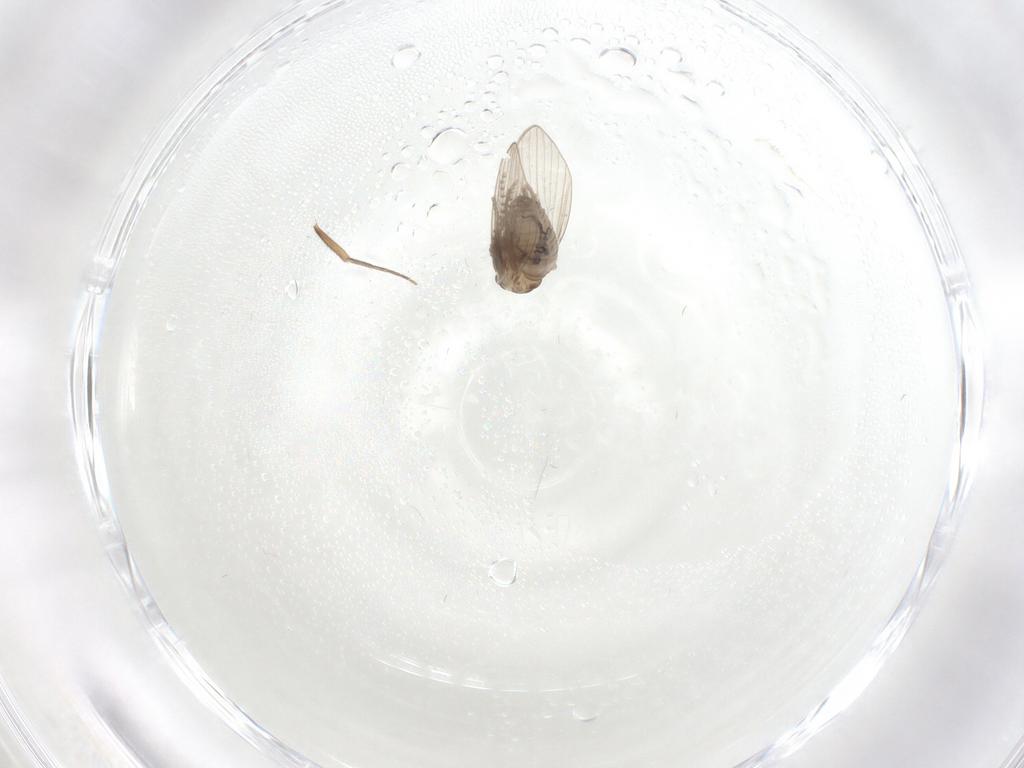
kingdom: Animalia
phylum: Arthropoda
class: Insecta
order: Diptera
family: Psychodidae
